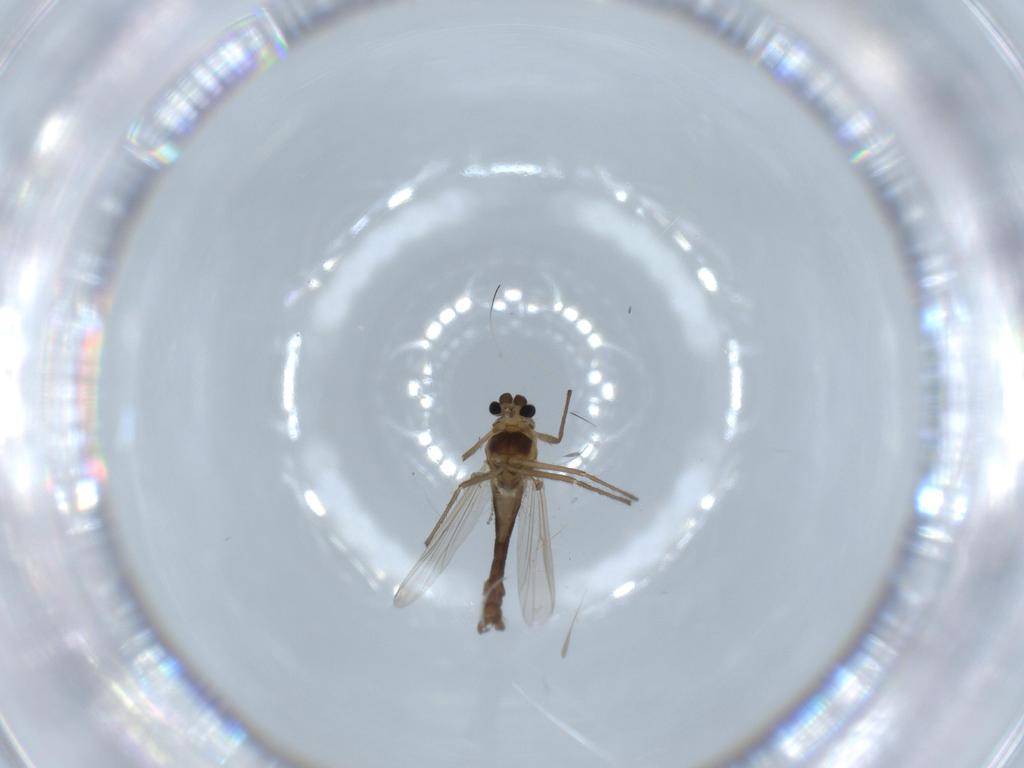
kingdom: Animalia
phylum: Arthropoda
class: Insecta
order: Diptera
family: Chironomidae
